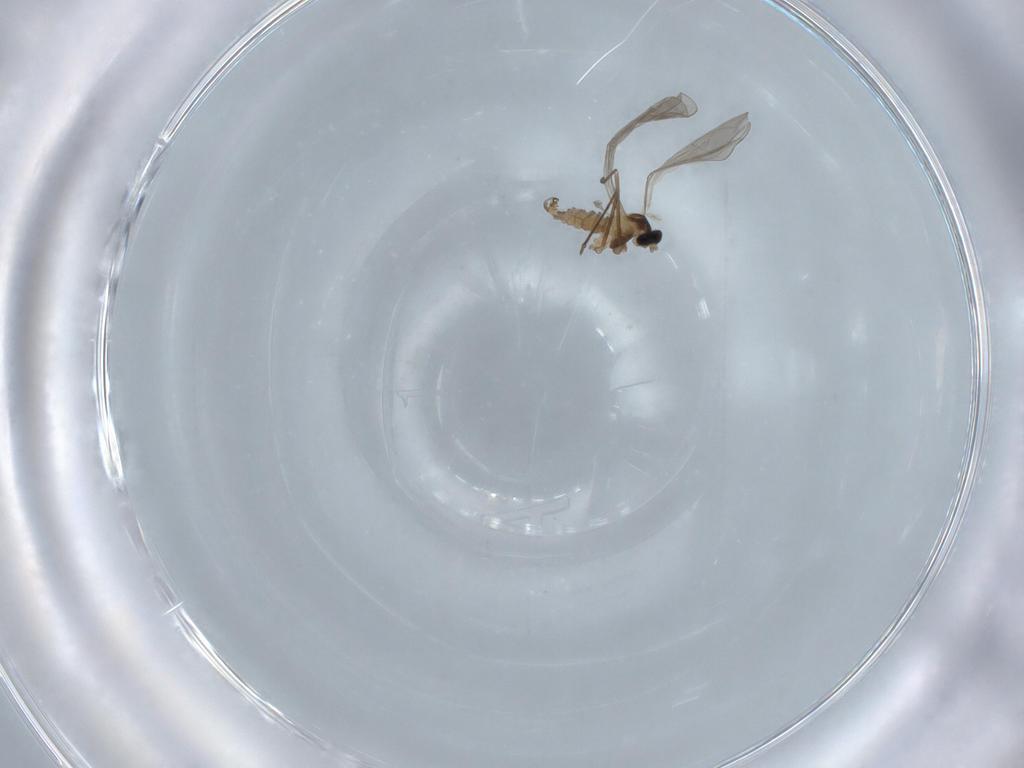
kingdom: Animalia
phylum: Arthropoda
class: Insecta
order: Diptera
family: Cecidomyiidae
